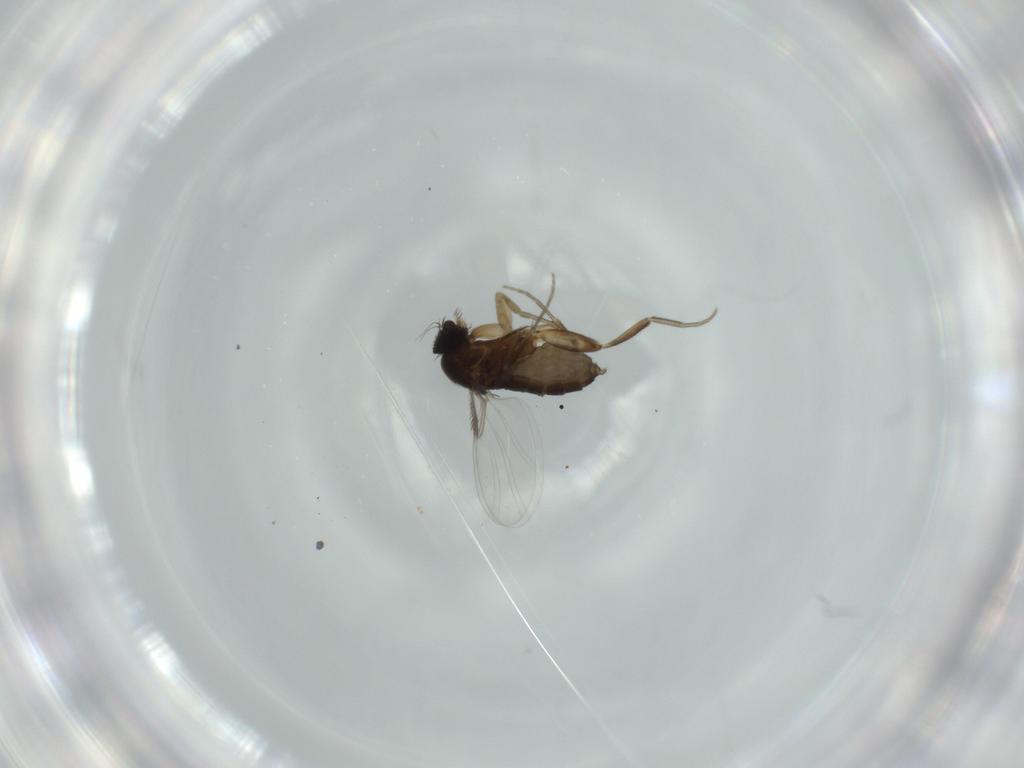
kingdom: Animalia
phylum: Arthropoda
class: Insecta
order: Diptera
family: Phoridae
